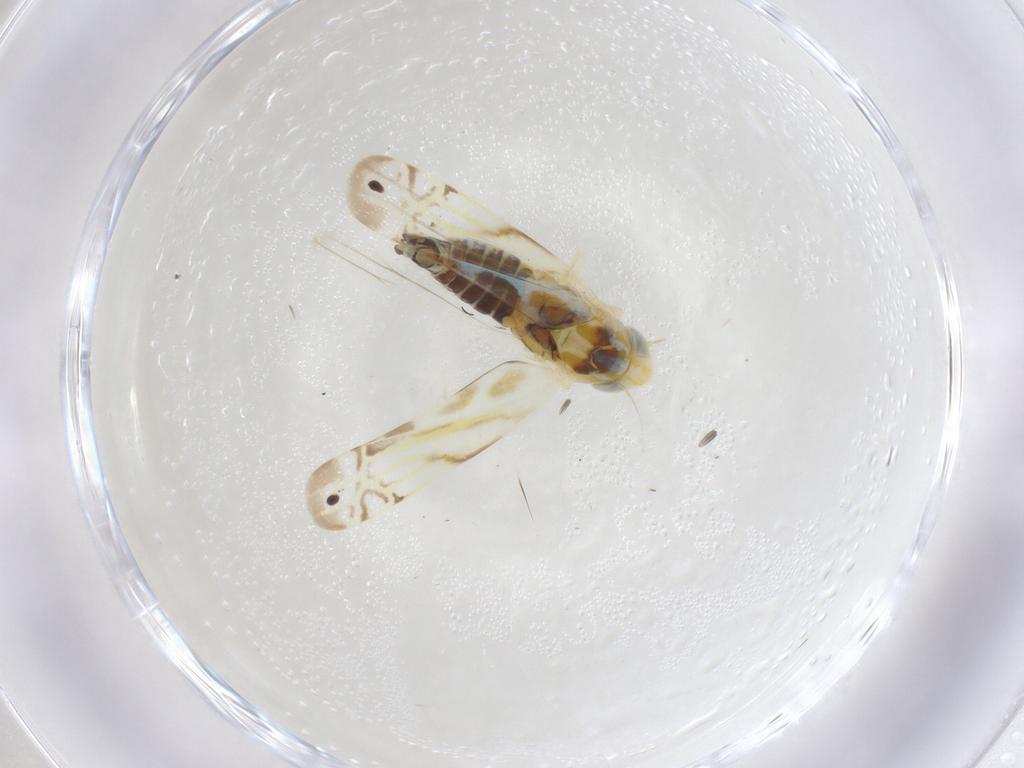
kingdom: Animalia
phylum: Arthropoda
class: Insecta
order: Hemiptera
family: Cicadellidae
